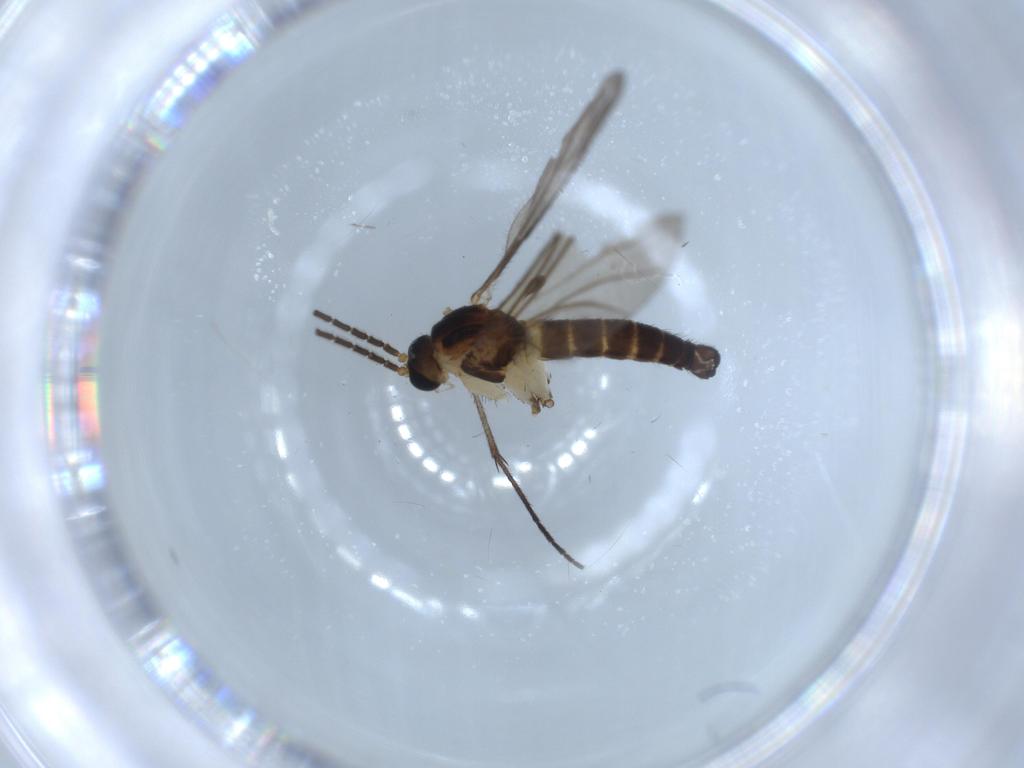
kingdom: Animalia
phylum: Arthropoda
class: Insecta
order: Diptera
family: Sciaridae
